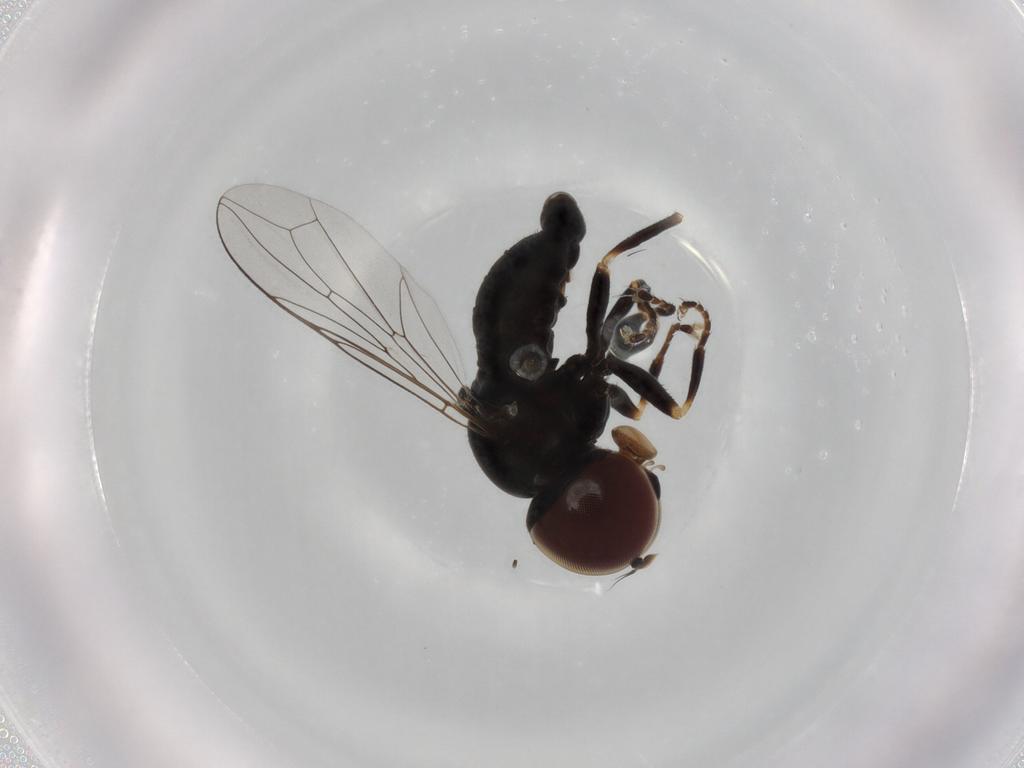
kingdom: Animalia
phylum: Arthropoda
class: Insecta
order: Diptera
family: Pipunculidae
